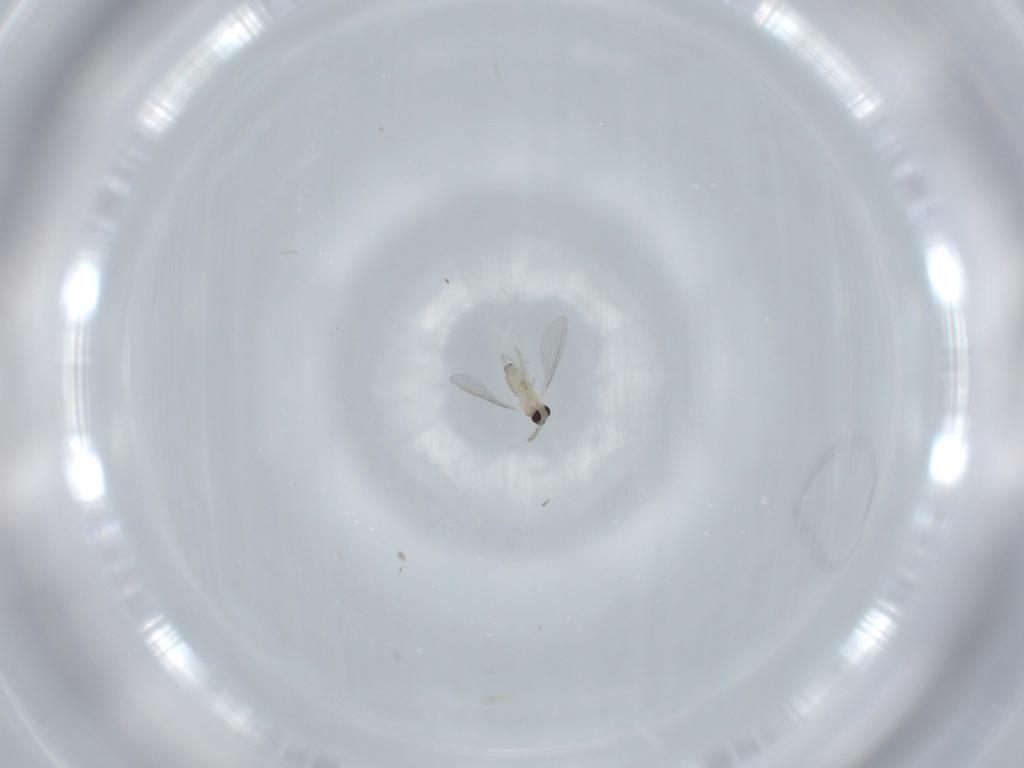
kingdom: Animalia
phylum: Arthropoda
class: Insecta
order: Diptera
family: Cecidomyiidae
